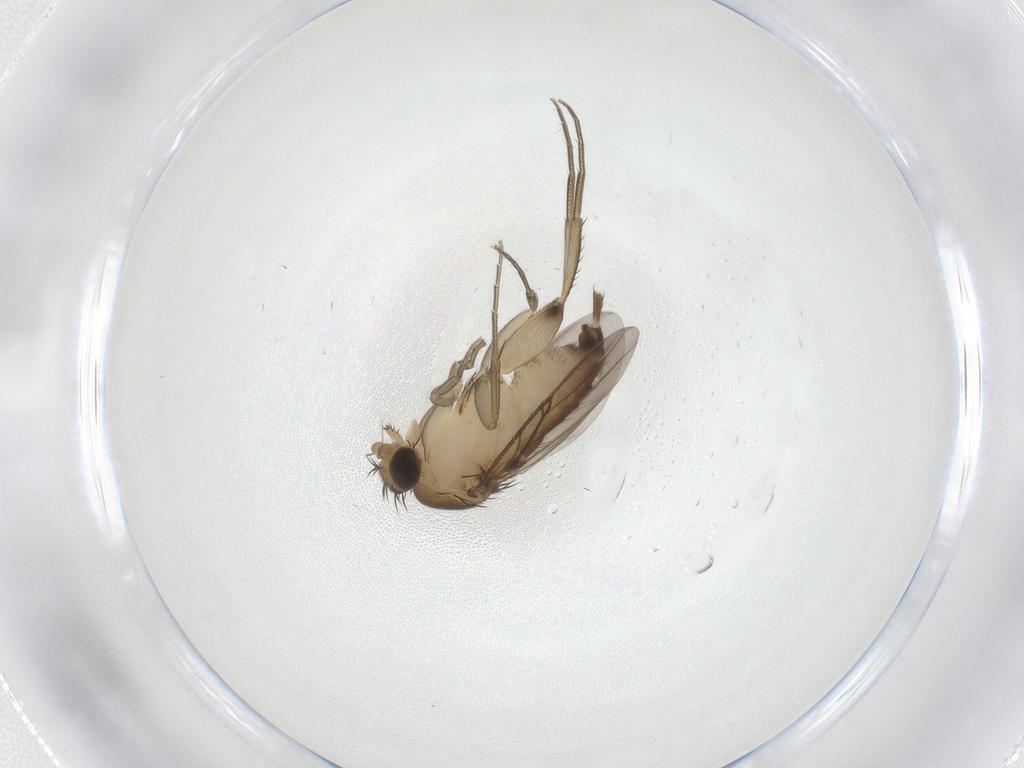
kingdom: Animalia
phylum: Arthropoda
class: Insecta
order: Diptera
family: Phoridae
